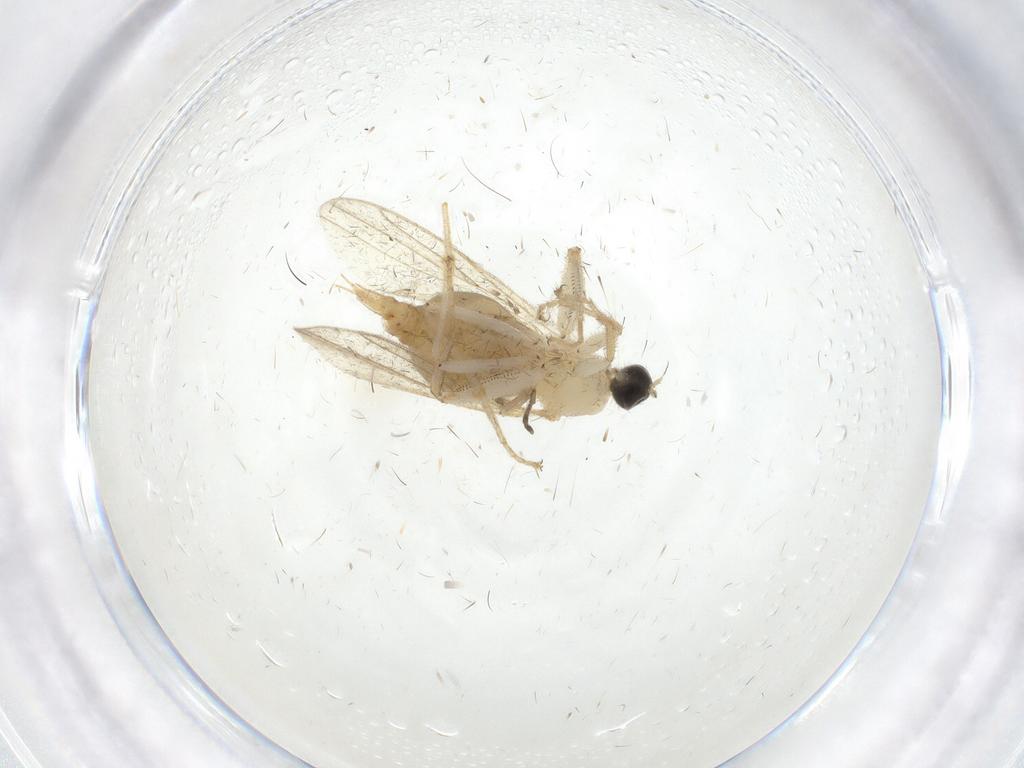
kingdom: Animalia
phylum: Arthropoda
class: Insecta
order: Diptera
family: Hybotidae
